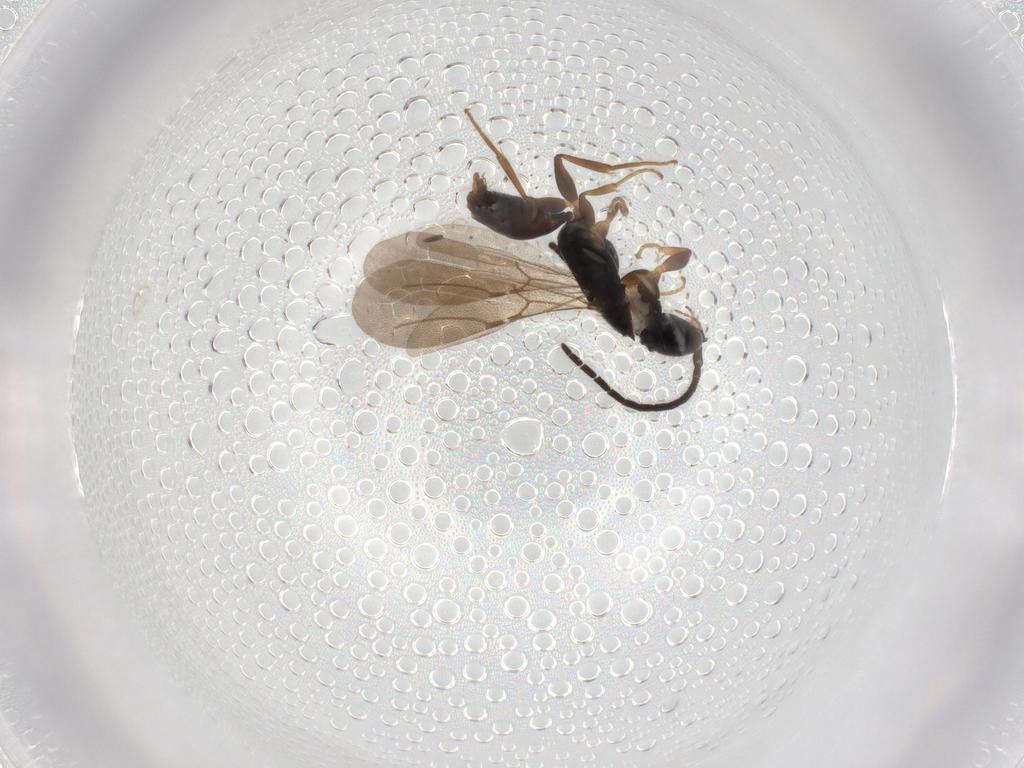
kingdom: Animalia
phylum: Arthropoda
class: Insecta
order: Hymenoptera
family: Bethylidae
